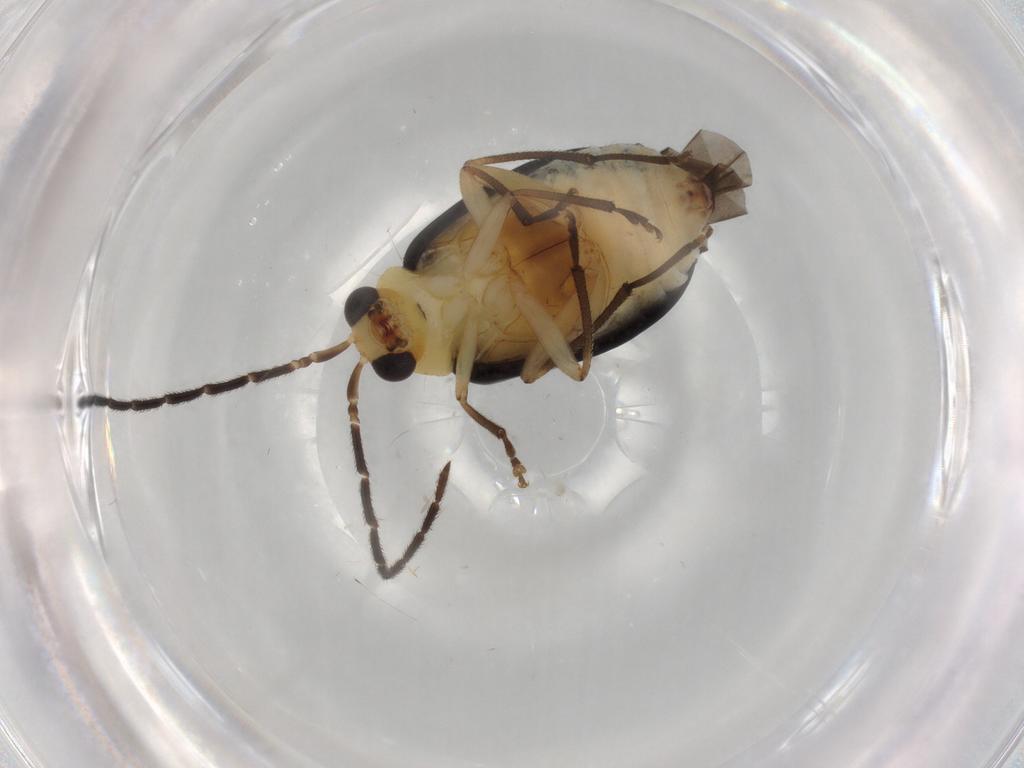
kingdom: Animalia
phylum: Arthropoda
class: Insecta
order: Coleoptera
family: Chrysomelidae
